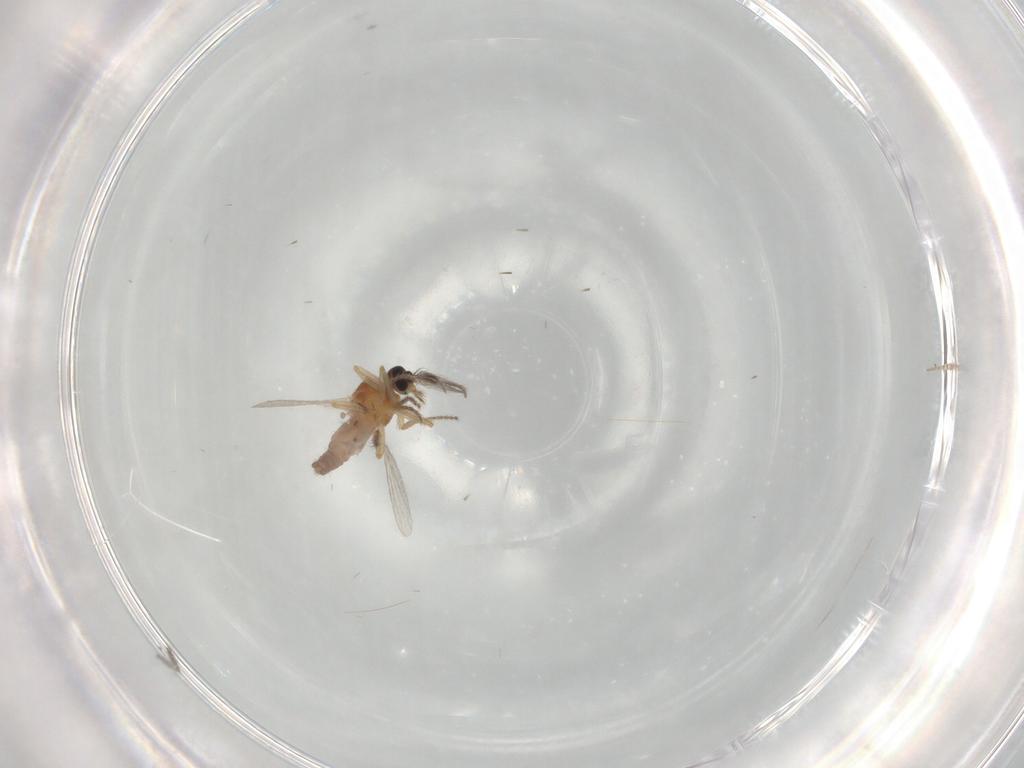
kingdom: Animalia
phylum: Arthropoda
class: Insecta
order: Diptera
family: Ceratopogonidae
